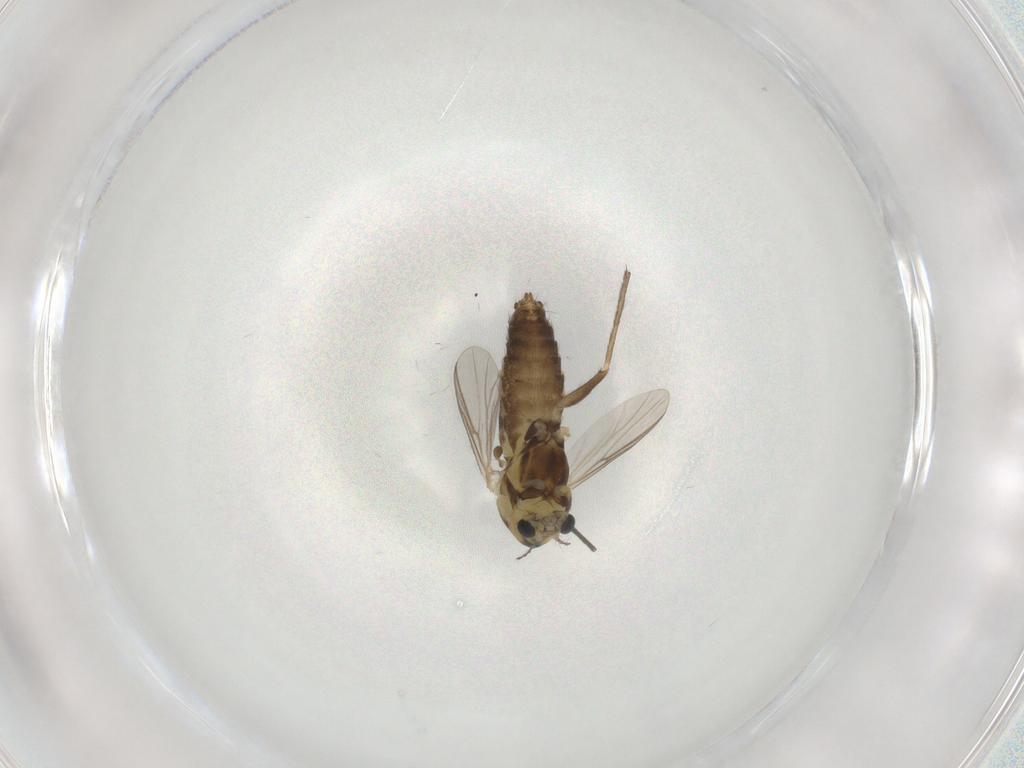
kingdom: Animalia
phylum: Arthropoda
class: Insecta
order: Diptera
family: Chironomidae
